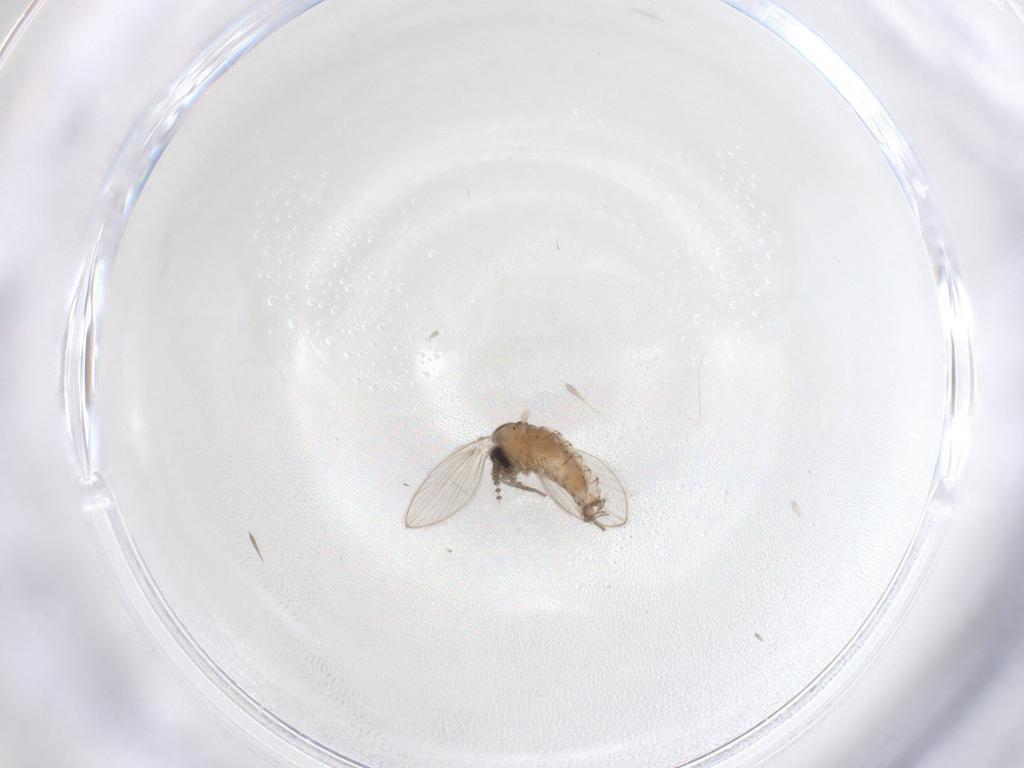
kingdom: Animalia
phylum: Arthropoda
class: Insecta
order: Diptera
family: Psychodidae
